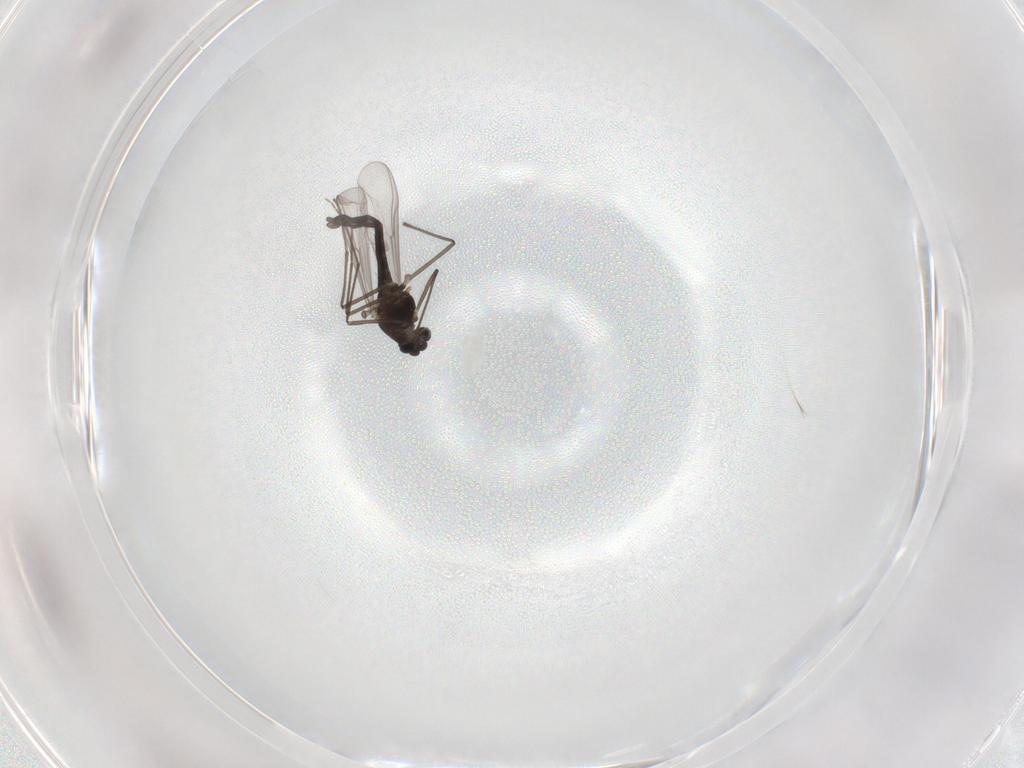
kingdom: Animalia
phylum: Arthropoda
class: Insecta
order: Diptera
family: Chironomidae
